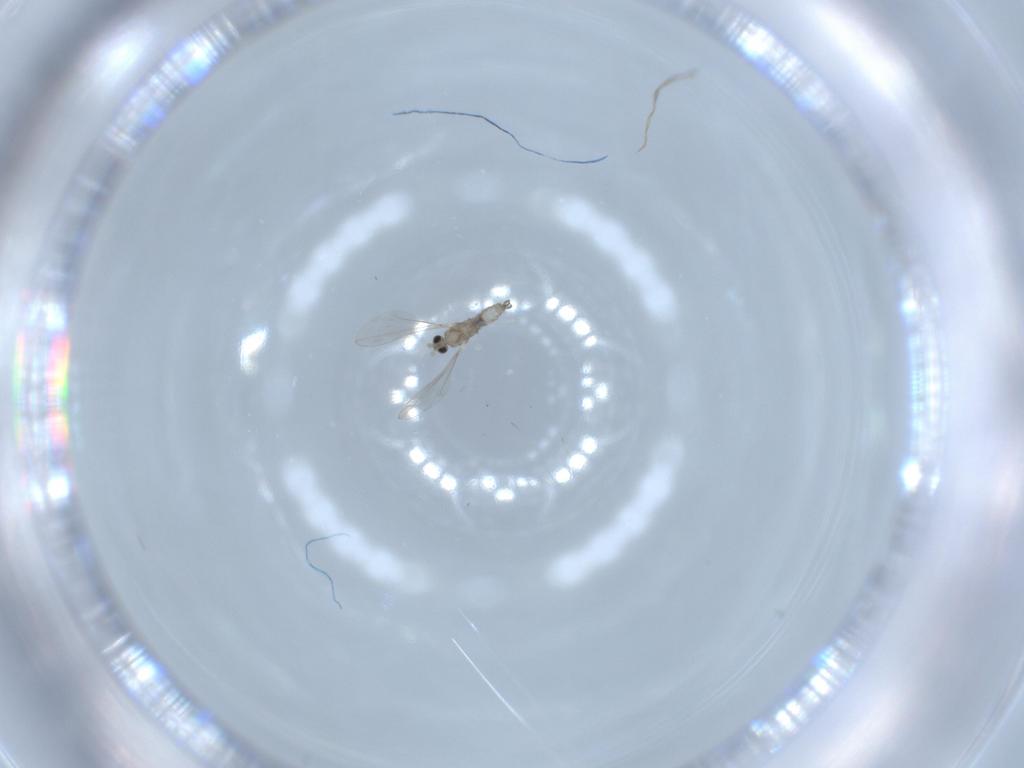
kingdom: Animalia
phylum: Arthropoda
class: Insecta
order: Diptera
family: Cecidomyiidae
